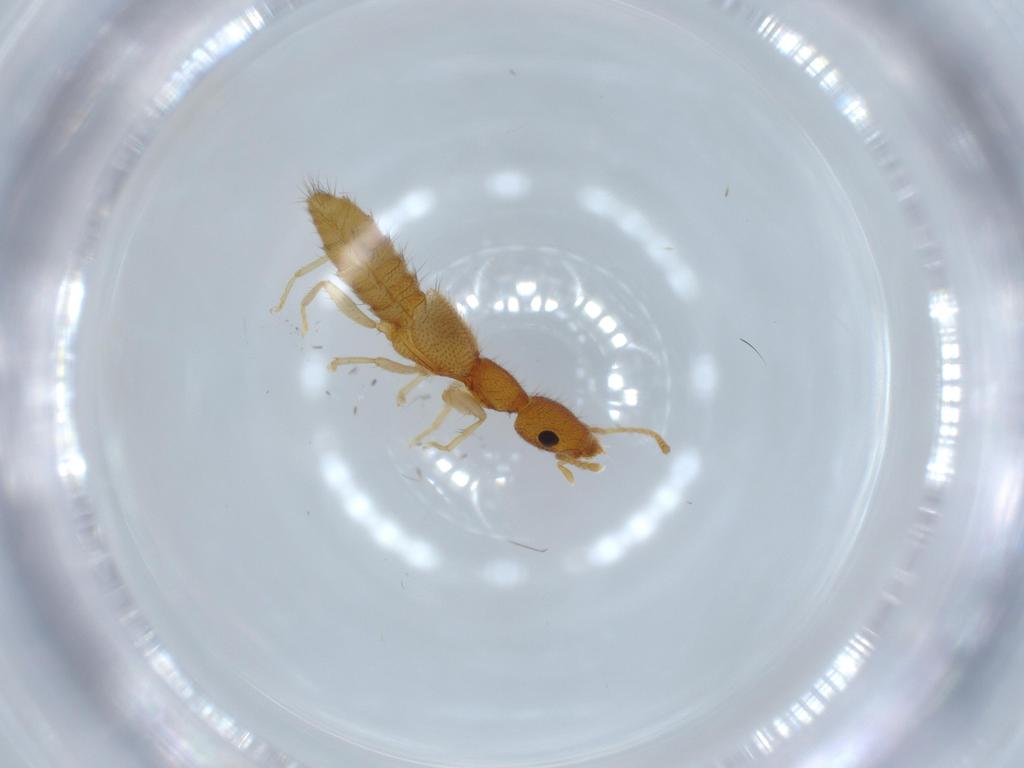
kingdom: Animalia
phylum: Arthropoda
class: Insecta
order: Coleoptera
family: Staphylinidae
